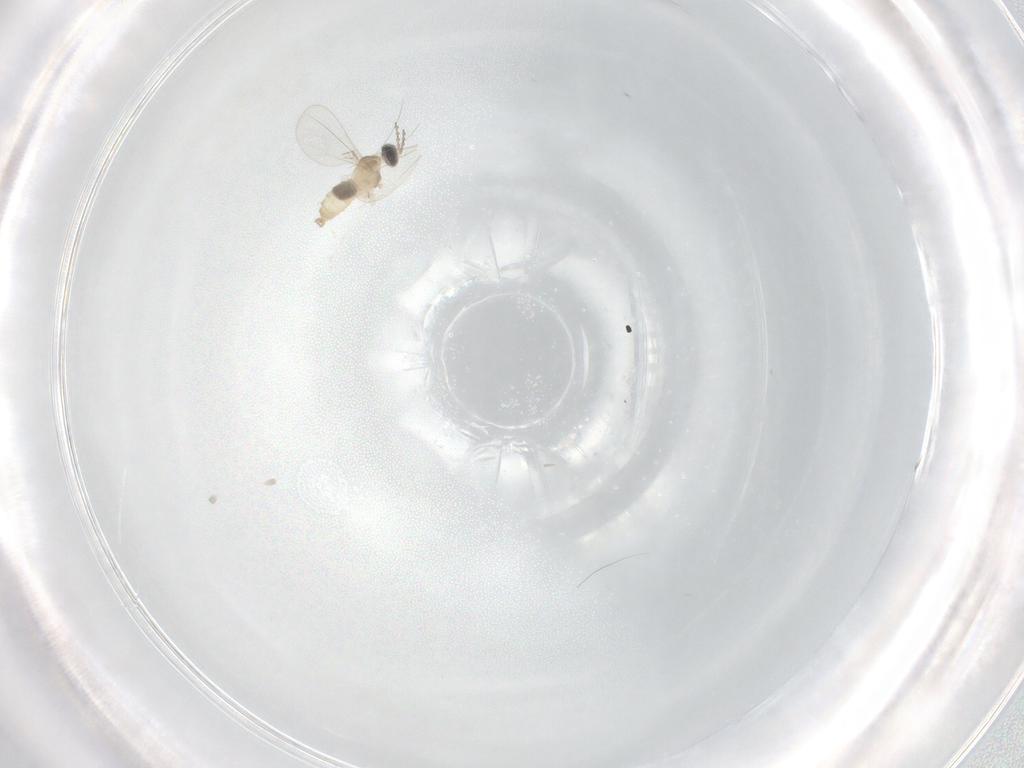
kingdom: Animalia
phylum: Arthropoda
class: Insecta
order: Diptera
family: Cecidomyiidae
